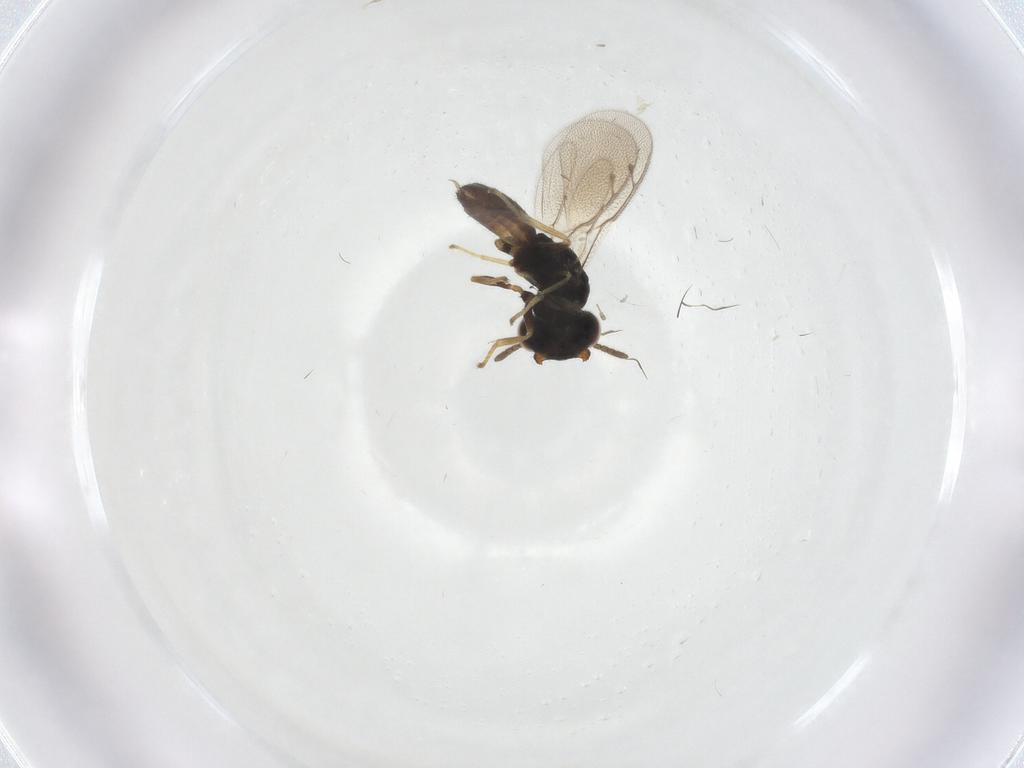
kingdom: Animalia
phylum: Arthropoda
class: Insecta
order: Hymenoptera
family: Pteromalidae
